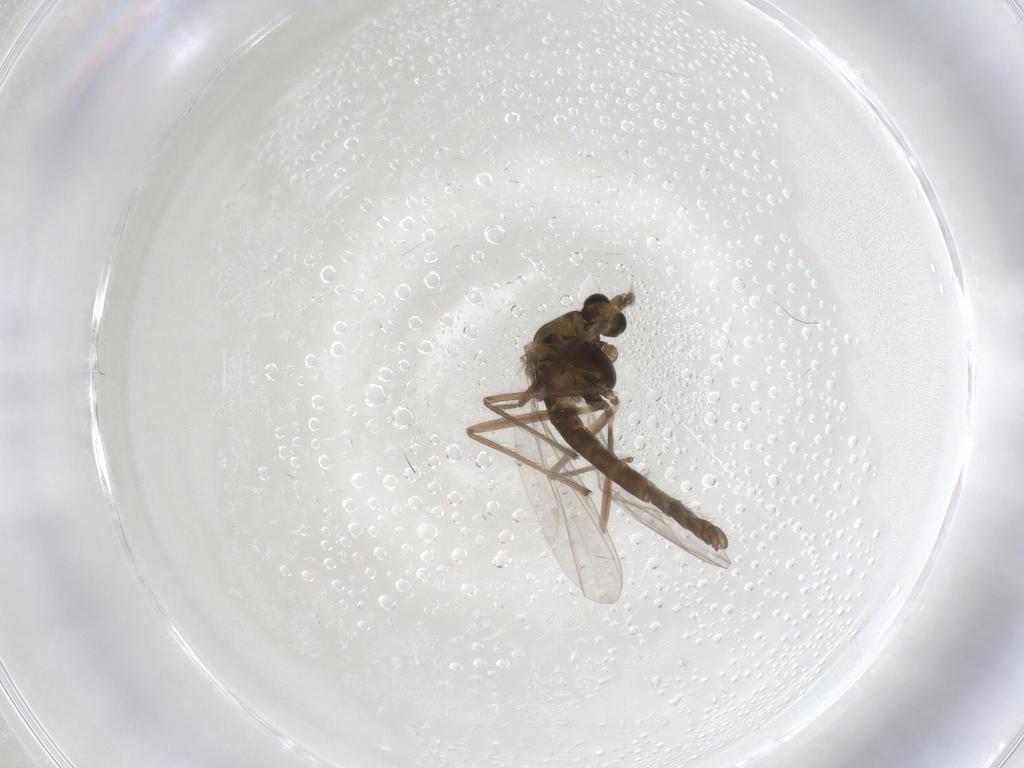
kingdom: Animalia
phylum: Arthropoda
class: Insecta
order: Diptera
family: Chironomidae
